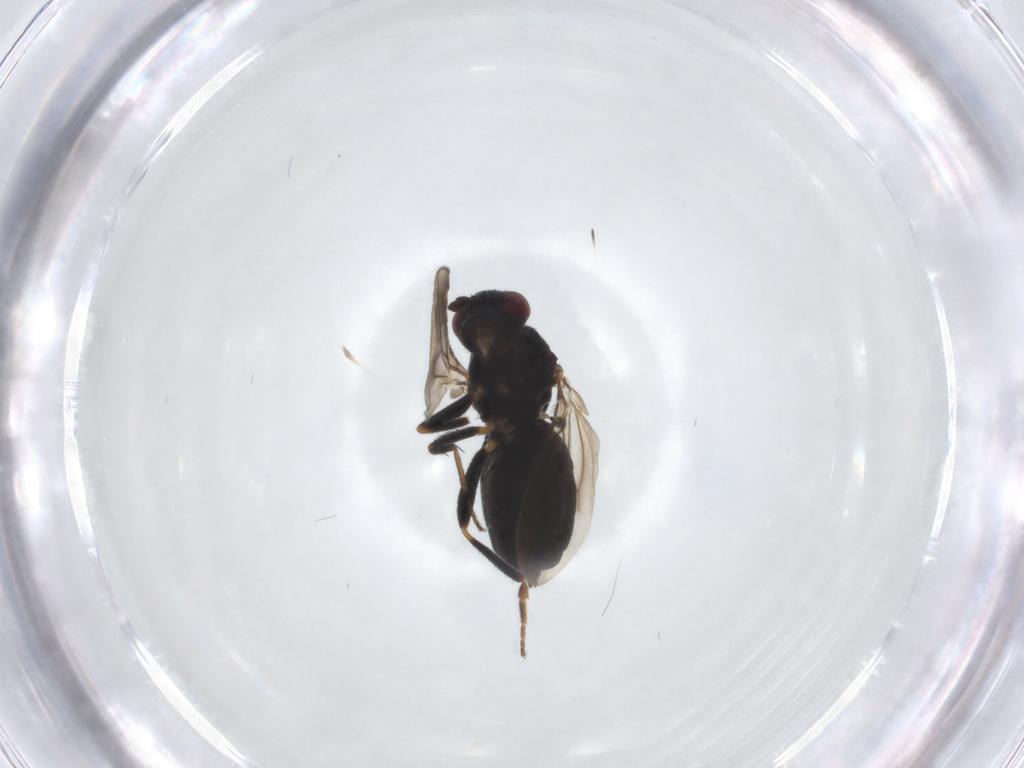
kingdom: Animalia
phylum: Arthropoda
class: Insecta
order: Diptera
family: Sphaeroceridae
